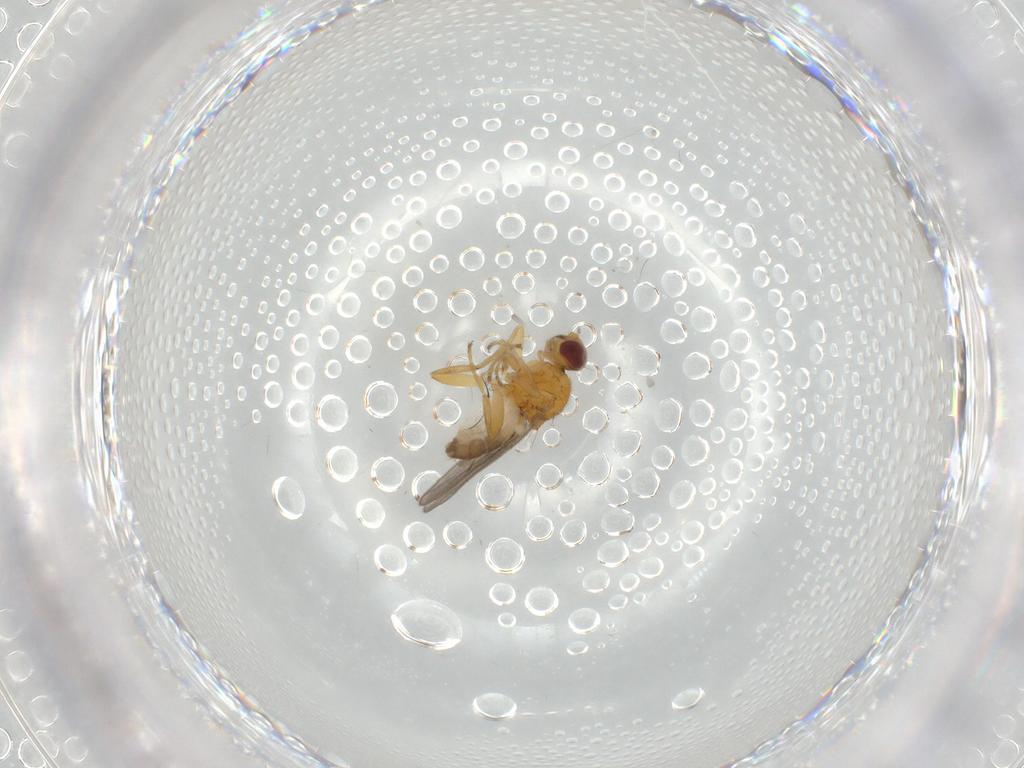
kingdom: Animalia
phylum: Arthropoda
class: Insecta
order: Diptera
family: Chloropidae
